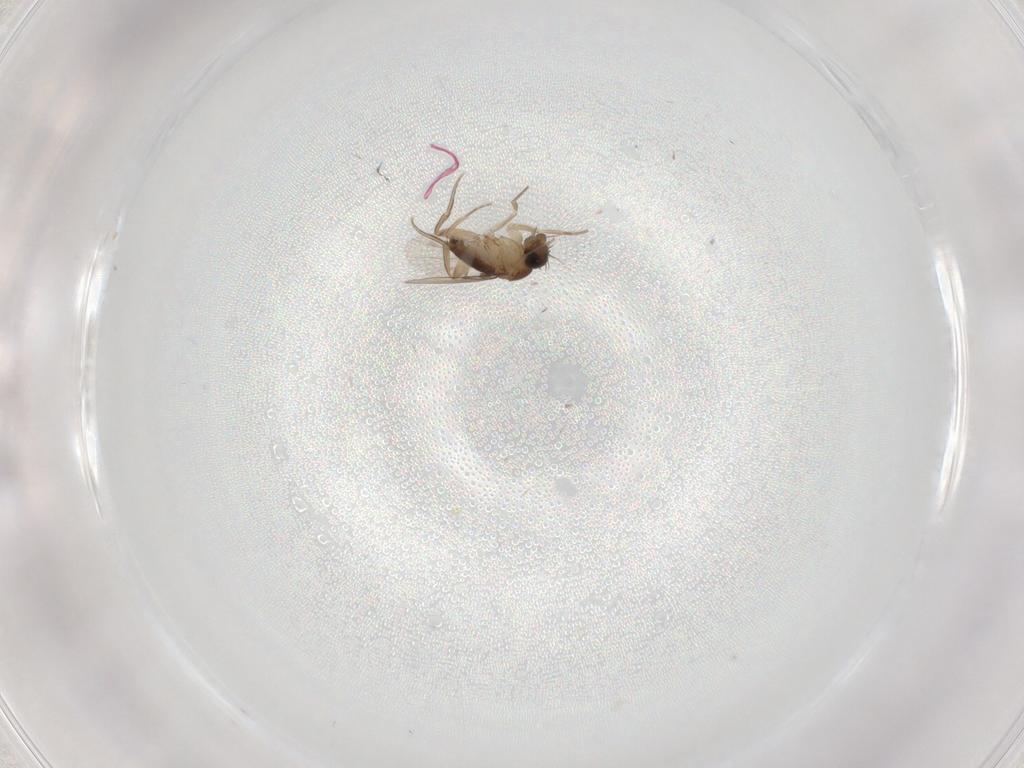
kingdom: Animalia
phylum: Arthropoda
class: Insecta
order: Diptera
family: Phoridae
